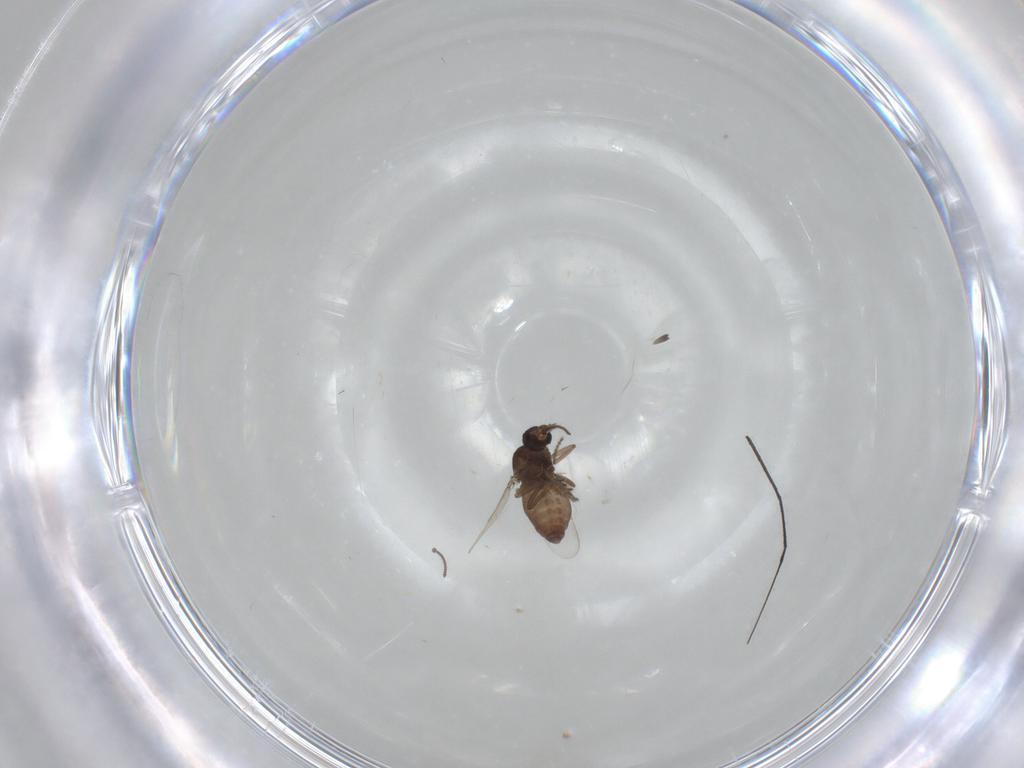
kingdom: Animalia
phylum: Arthropoda
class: Insecta
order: Diptera
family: Ceratopogonidae
